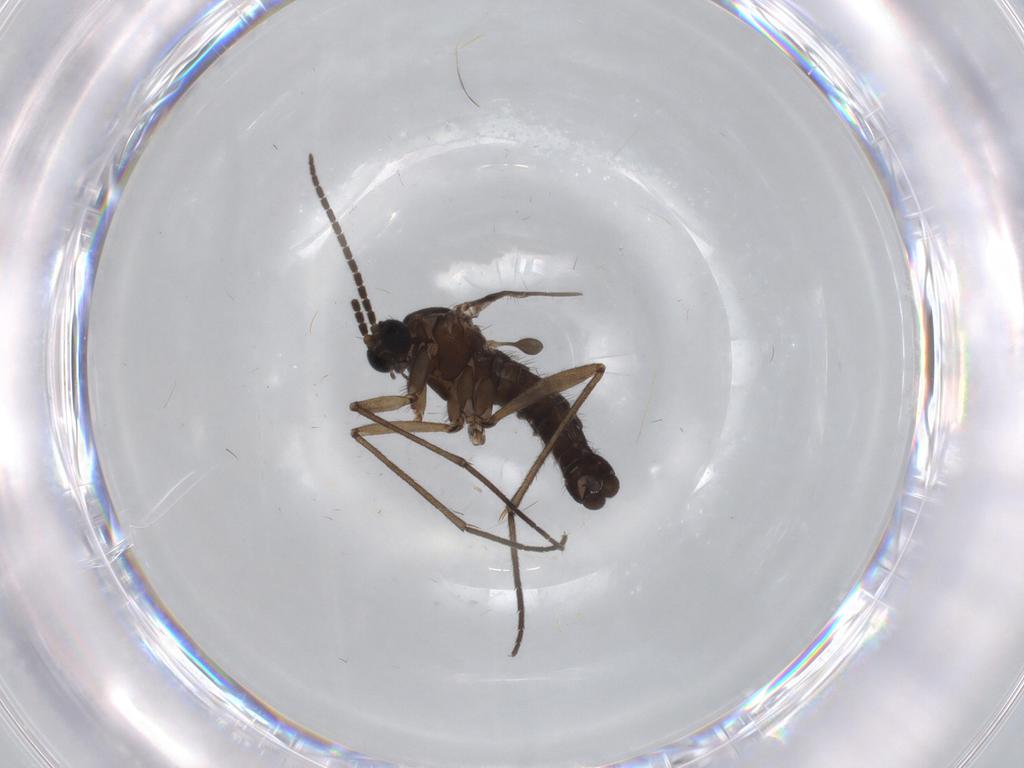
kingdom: Animalia
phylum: Arthropoda
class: Insecta
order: Diptera
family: Sciaridae
